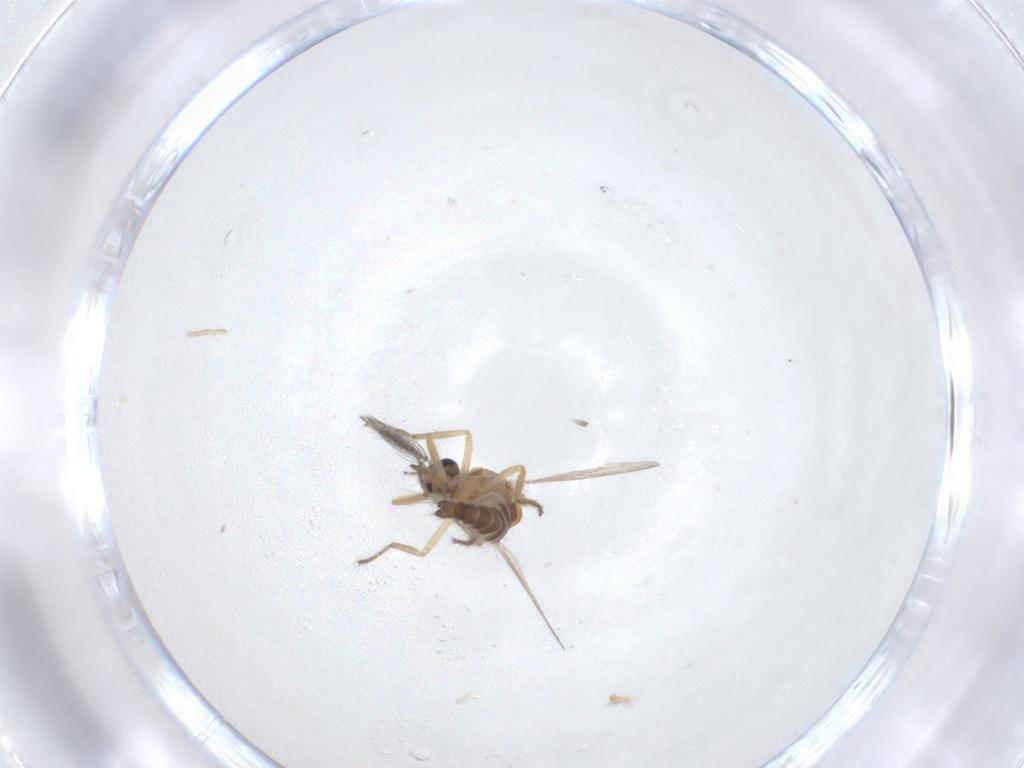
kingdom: Animalia
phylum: Arthropoda
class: Insecta
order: Diptera
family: Ceratopogonidae
